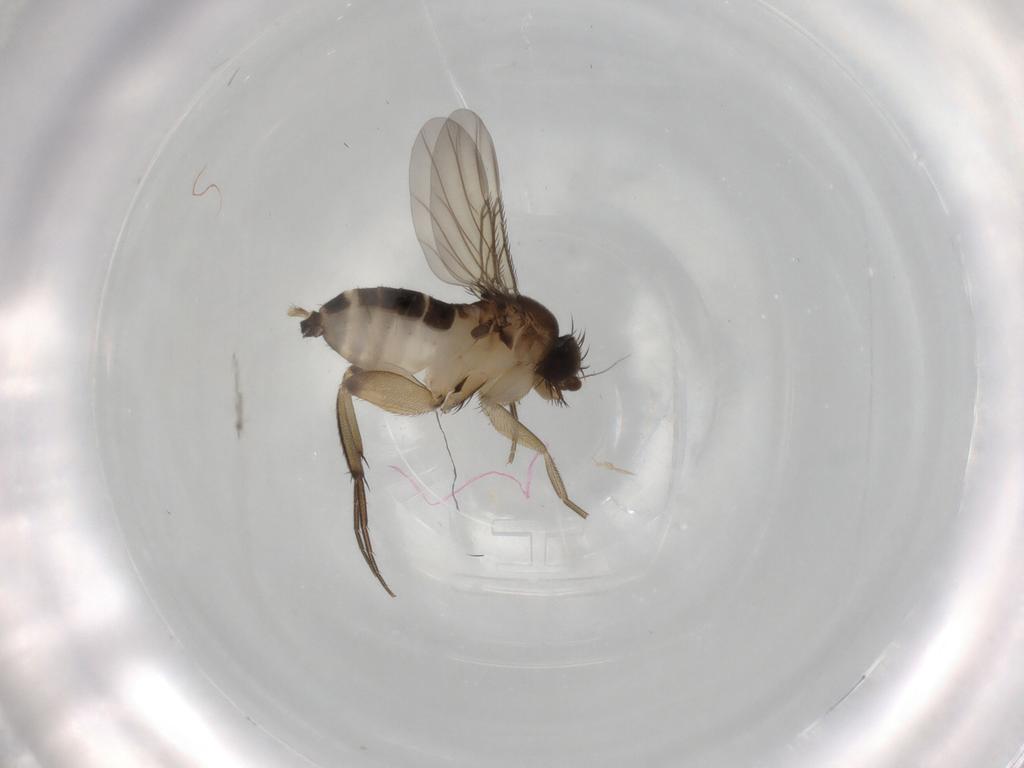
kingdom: Animalia
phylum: Arthropoda
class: Insecta
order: Diptera
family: Phoridae
